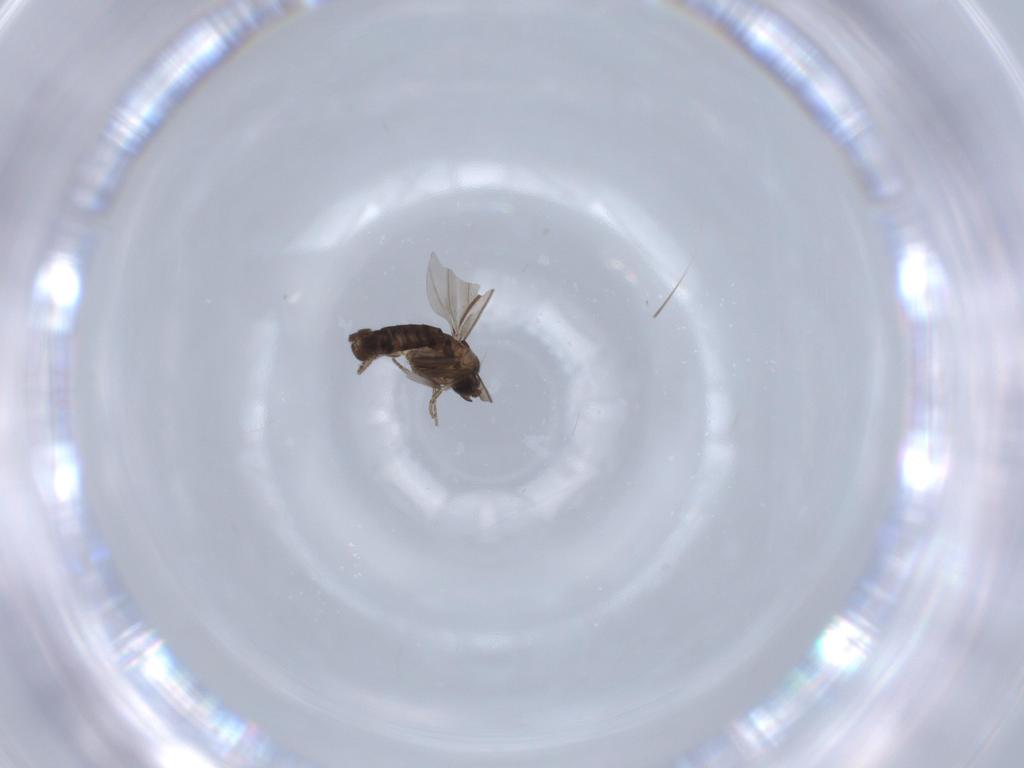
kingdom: Animalia
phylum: Arthropoda
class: Insecta
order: Diptera
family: Phoridae
